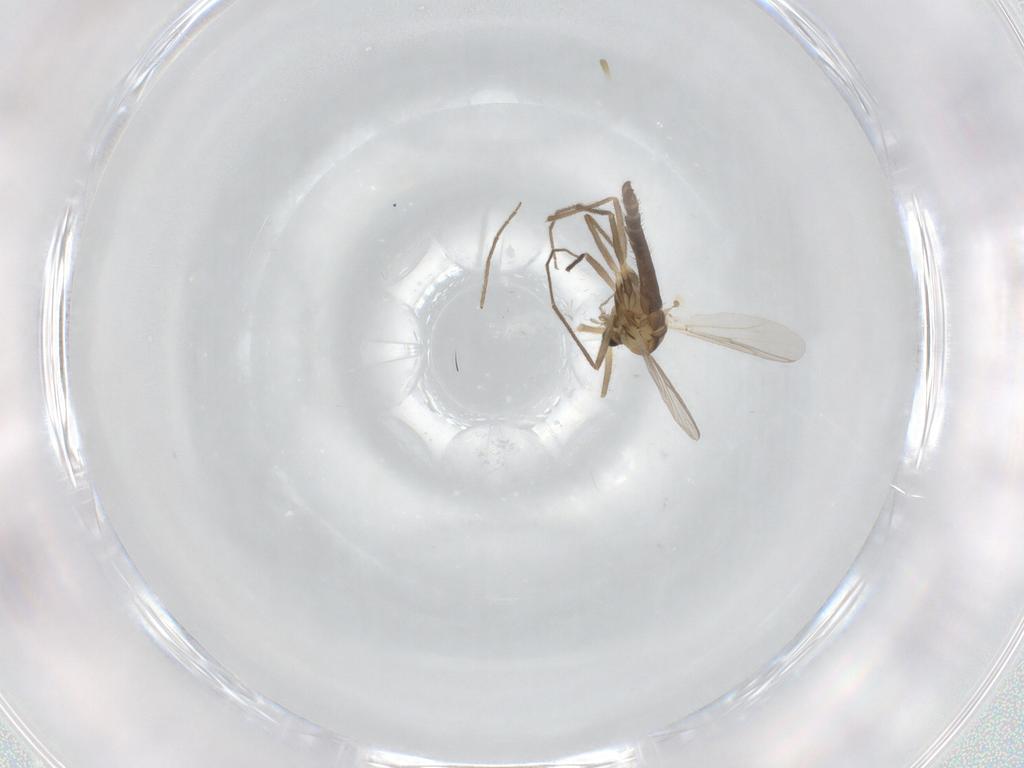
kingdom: Animalia
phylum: Arthropoda
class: Insecta
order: Diptera
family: Chironomidae
